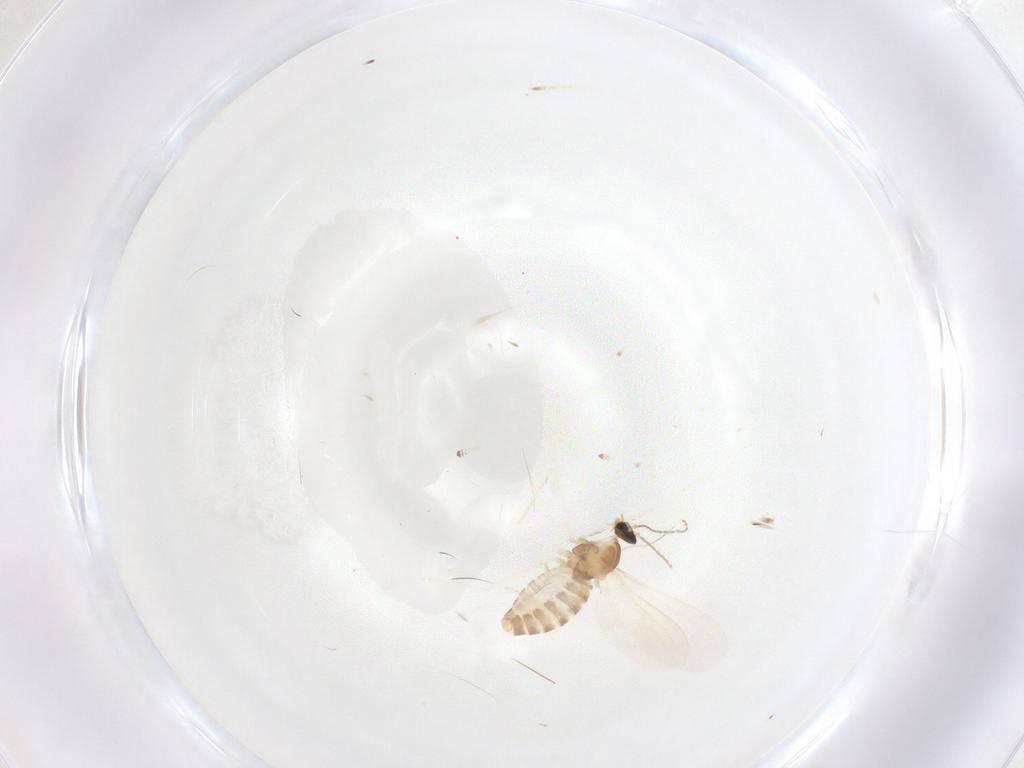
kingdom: Animalia
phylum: Arthropoda
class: Insecta
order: Diptera
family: Cecidomyiidae
